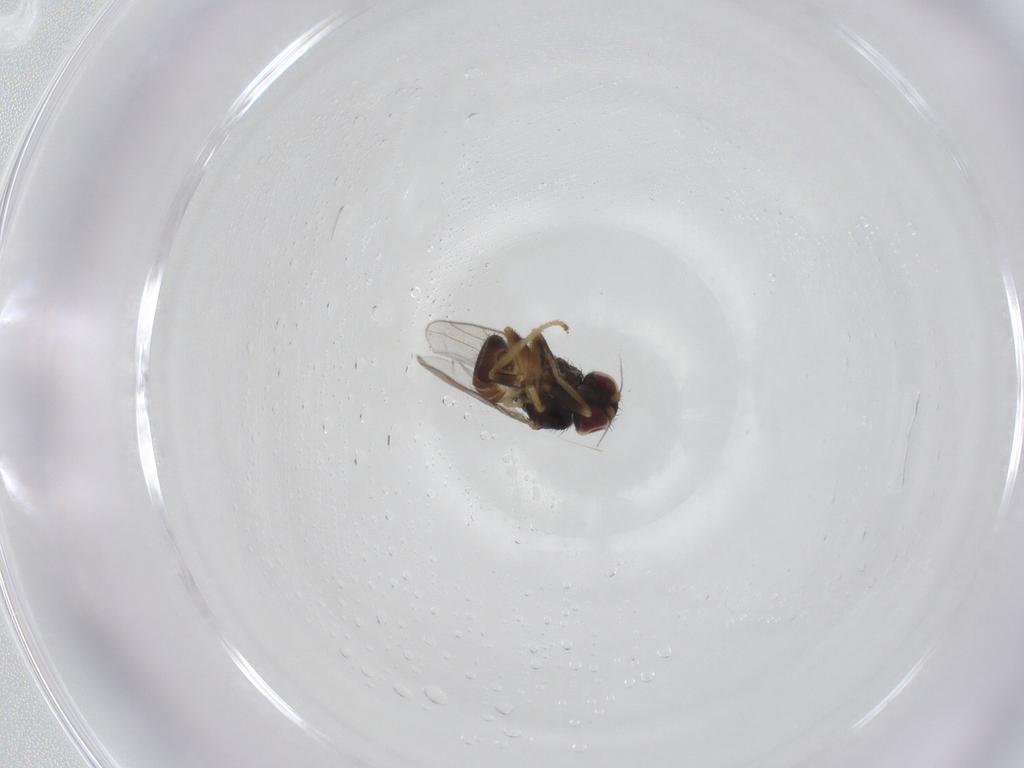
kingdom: Animalia
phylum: Arthropoda
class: Insecta
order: Diptera
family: Chloropidae
